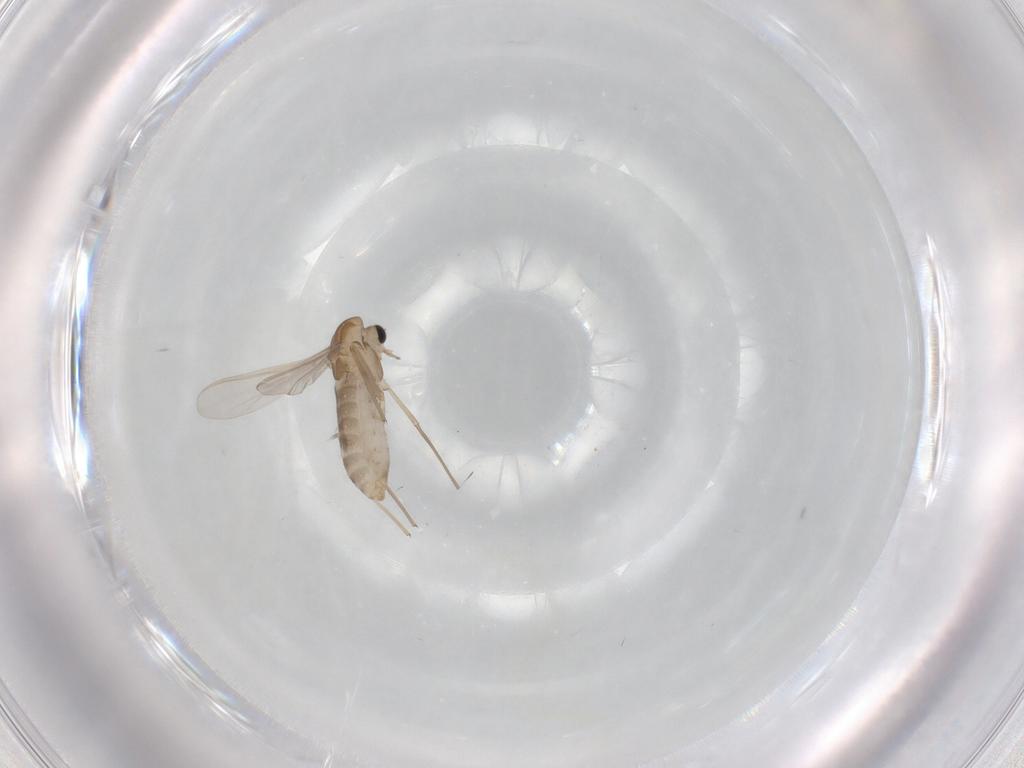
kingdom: Animalia
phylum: Arthropoda
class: Insecta
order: Diptera
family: Chironomidae
